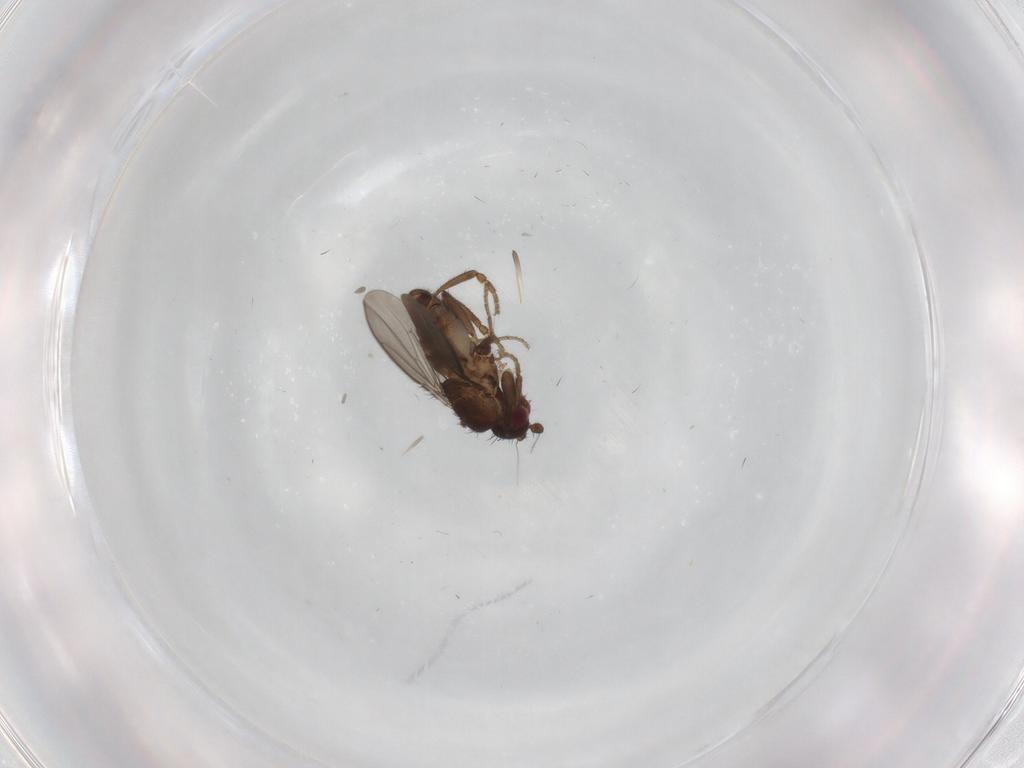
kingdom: Animalia
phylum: Arthropoda
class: Insecta
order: Diptera
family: Sphaeroceridae
